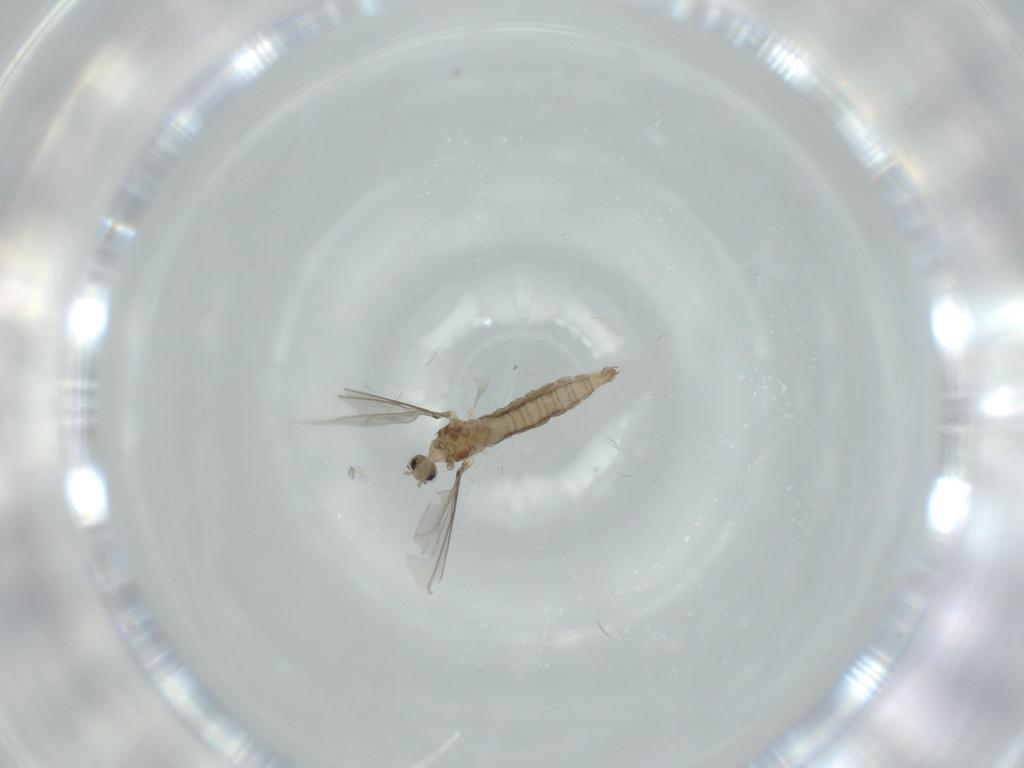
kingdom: Animalia
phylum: Arthropoda
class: Insecta
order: Diptera
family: Cecidomyiidae
